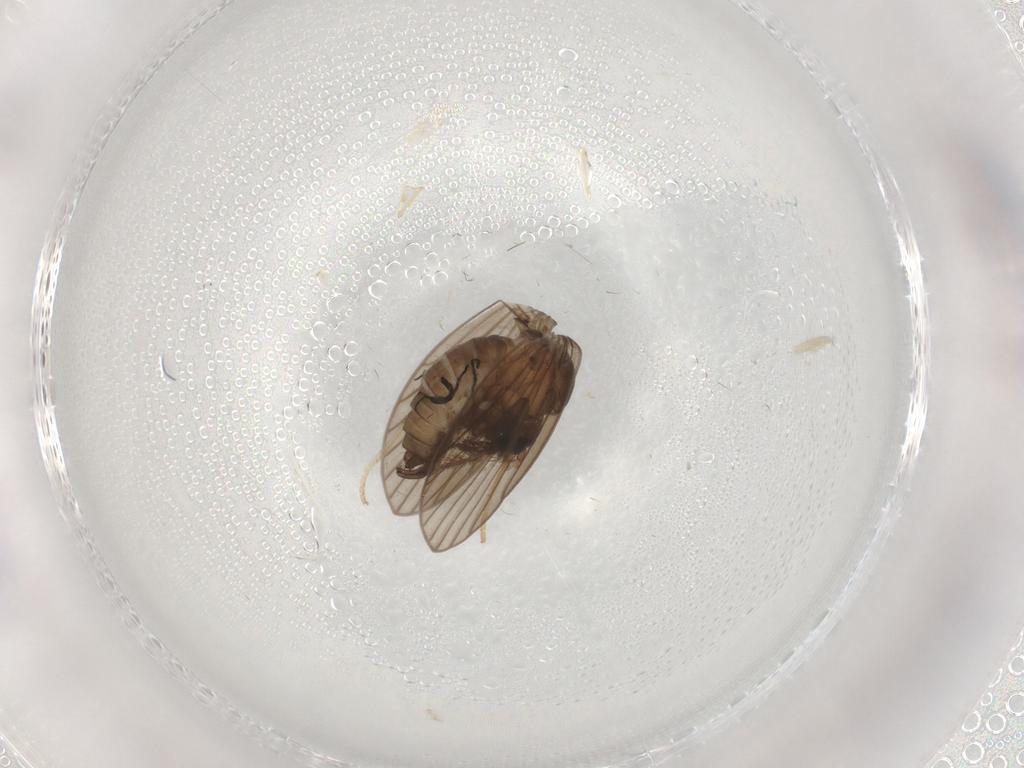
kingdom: Animalia
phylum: Arthropoda
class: Insecta
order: Diptera
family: Psychodidae
